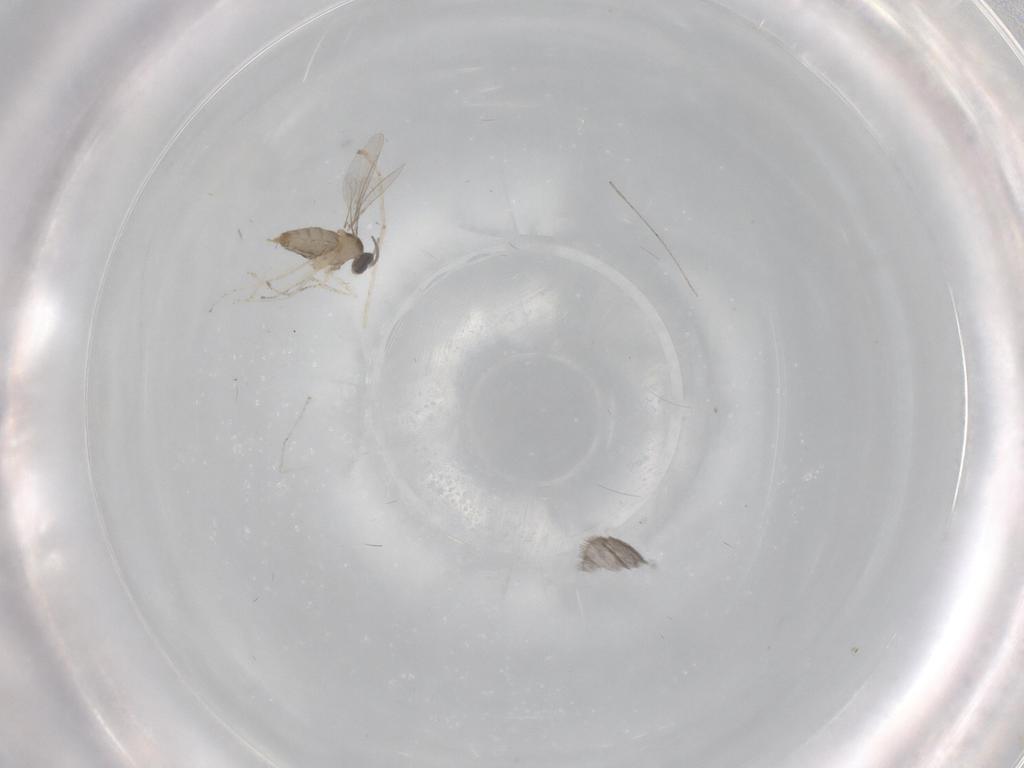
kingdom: Animalia
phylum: Arthropoda
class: Insecta
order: Diptera
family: Cecidomyiidae
